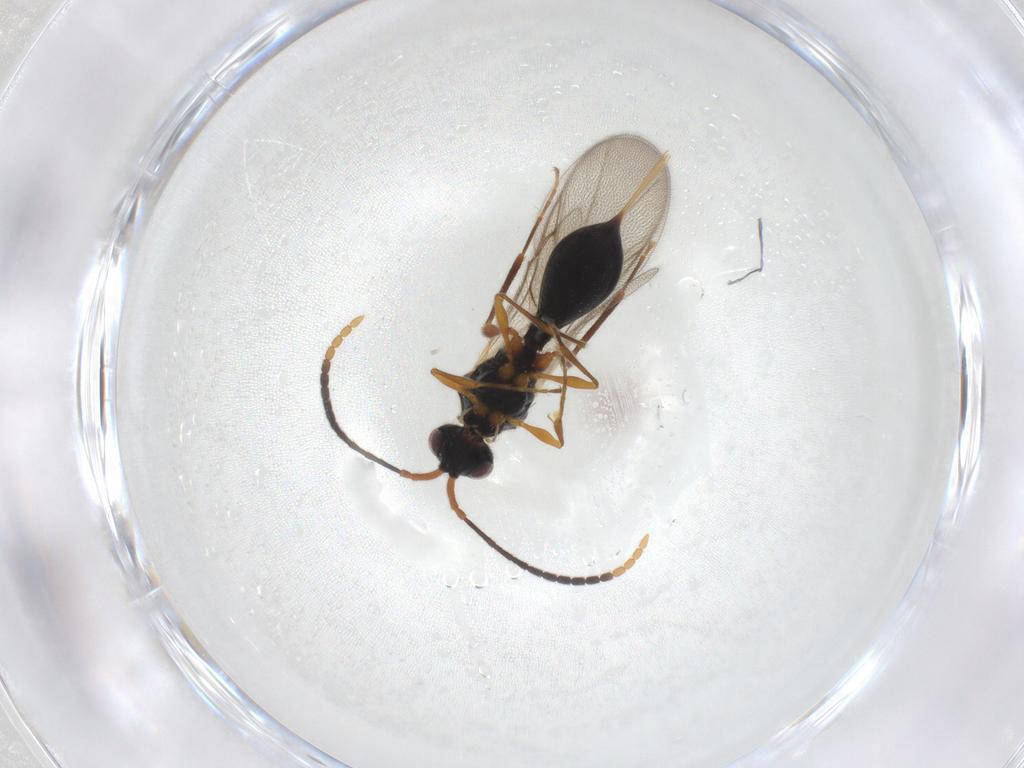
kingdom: Animalia
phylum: Arthropoda
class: Insecta
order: Hymenoptera
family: Diapriidae
